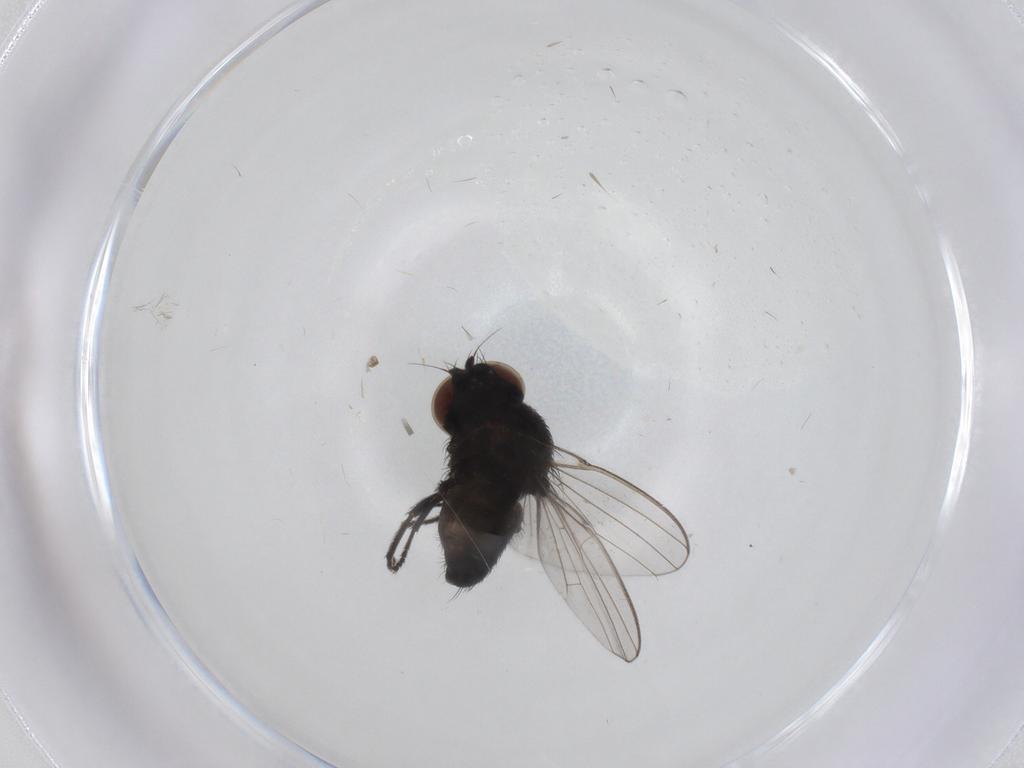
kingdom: Animalia
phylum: Arthropoda
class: Insecta
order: Diptera
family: Milichiidae
